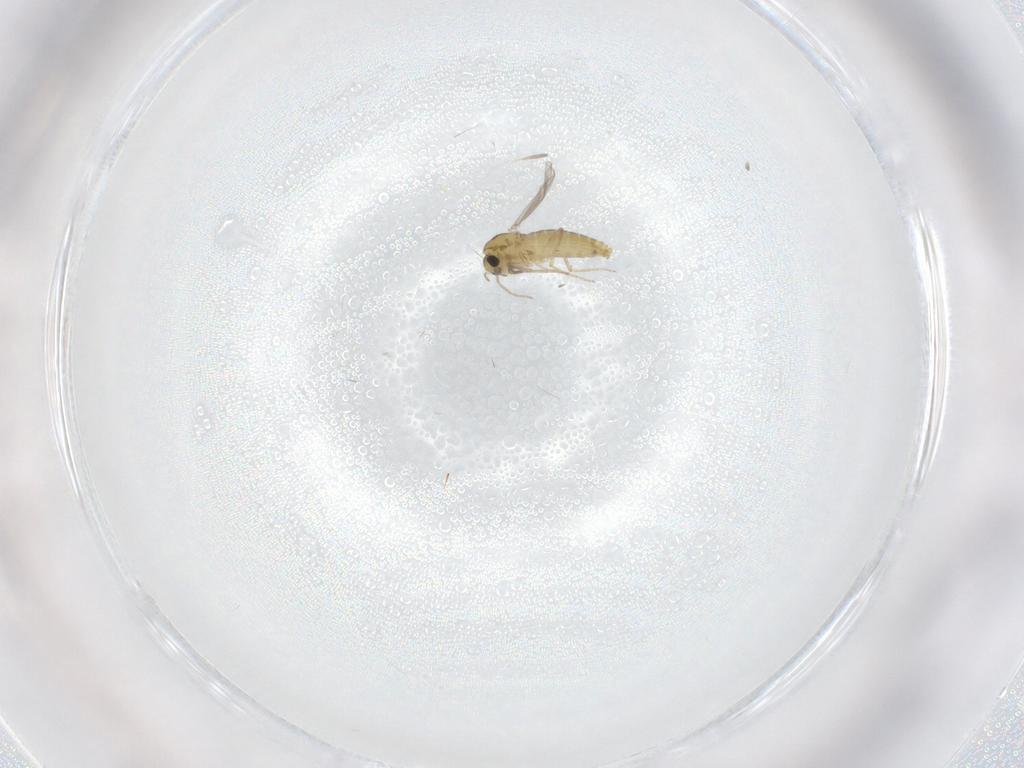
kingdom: Animalia
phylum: Arthropoda
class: Insecta
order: Diptera
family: Chironomidae
